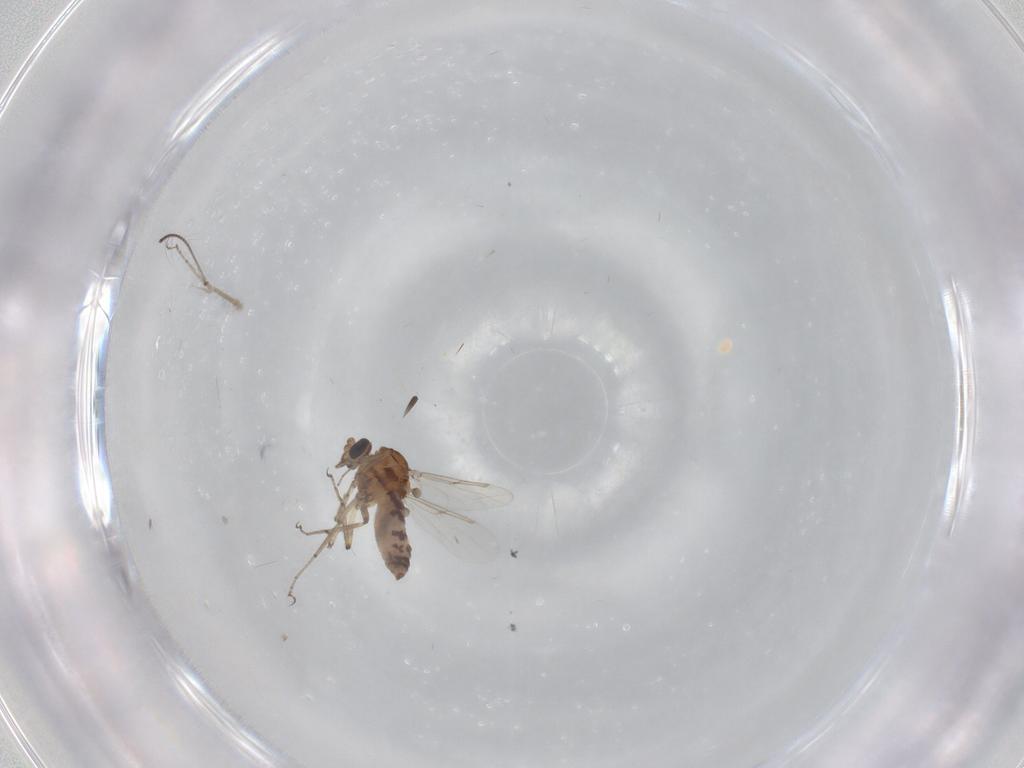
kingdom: Animalia
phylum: Arthropoda
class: Insecta
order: Diptera
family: Ceratopogonidae
